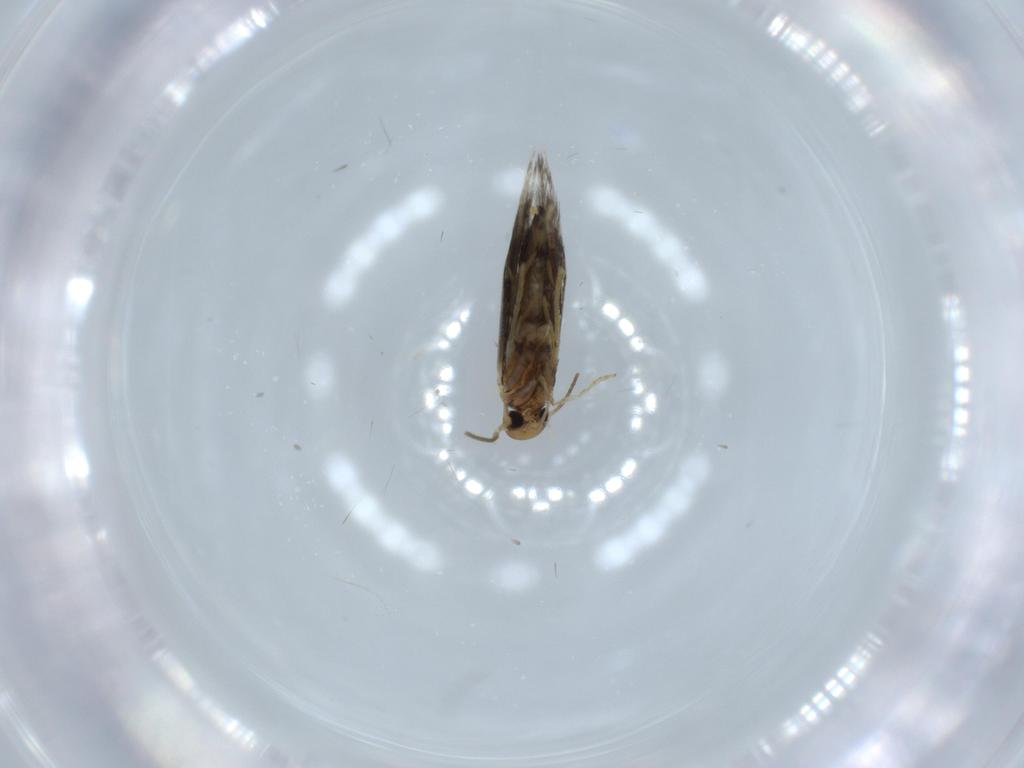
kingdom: Animalia
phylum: Arthropoda
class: Insecta
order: Lepidoptera
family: Heliozelidae
